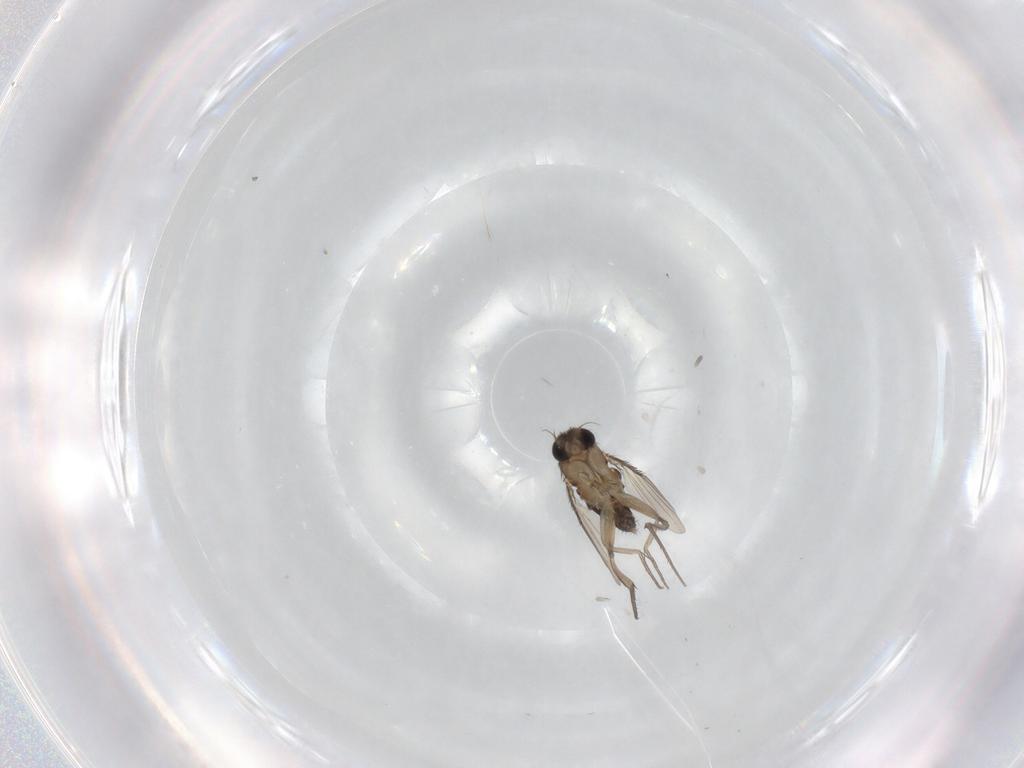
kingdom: Animalia
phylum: Arthropoda
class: Insecta
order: Diptera
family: Phoridae
